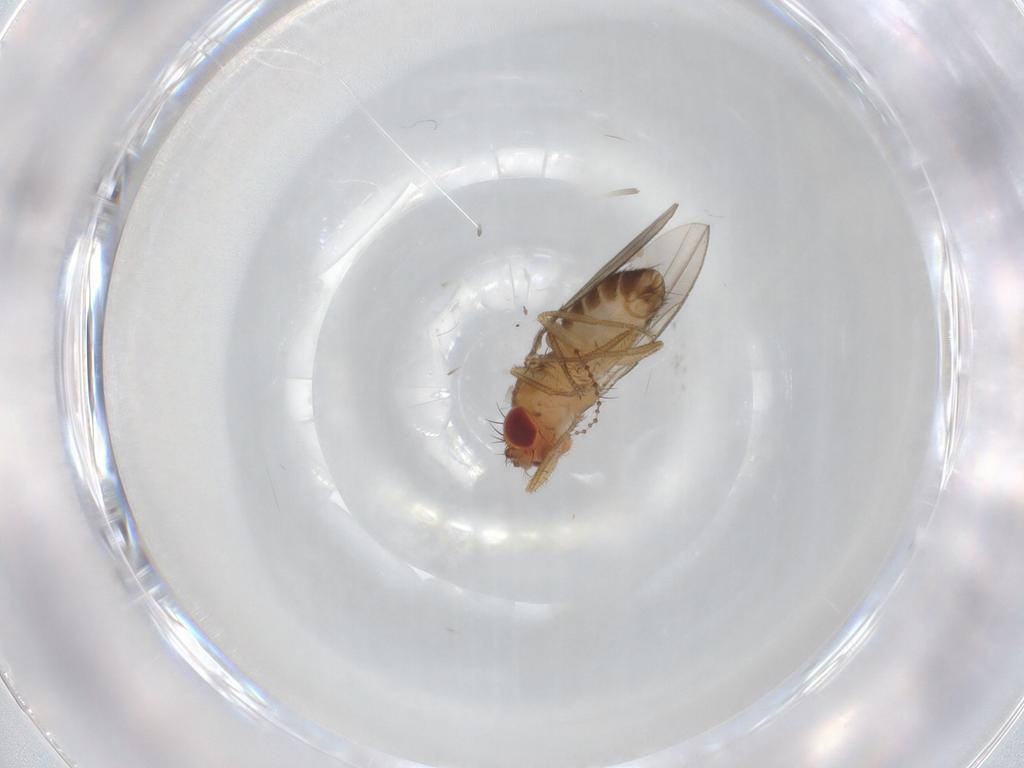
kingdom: Animalia
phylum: Arthropoda
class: Insecta
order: Diptera
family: Drosophilidae
